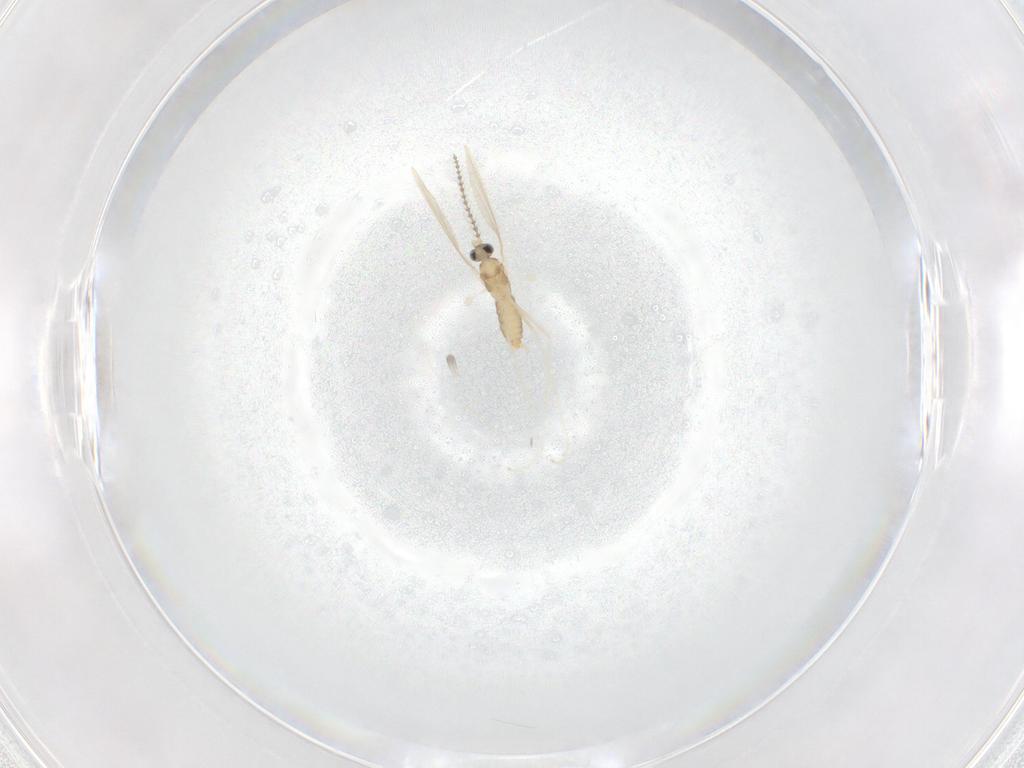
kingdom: Animalia
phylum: Arthropoda
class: Insecta
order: Diptera
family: Cecidomyiidae
